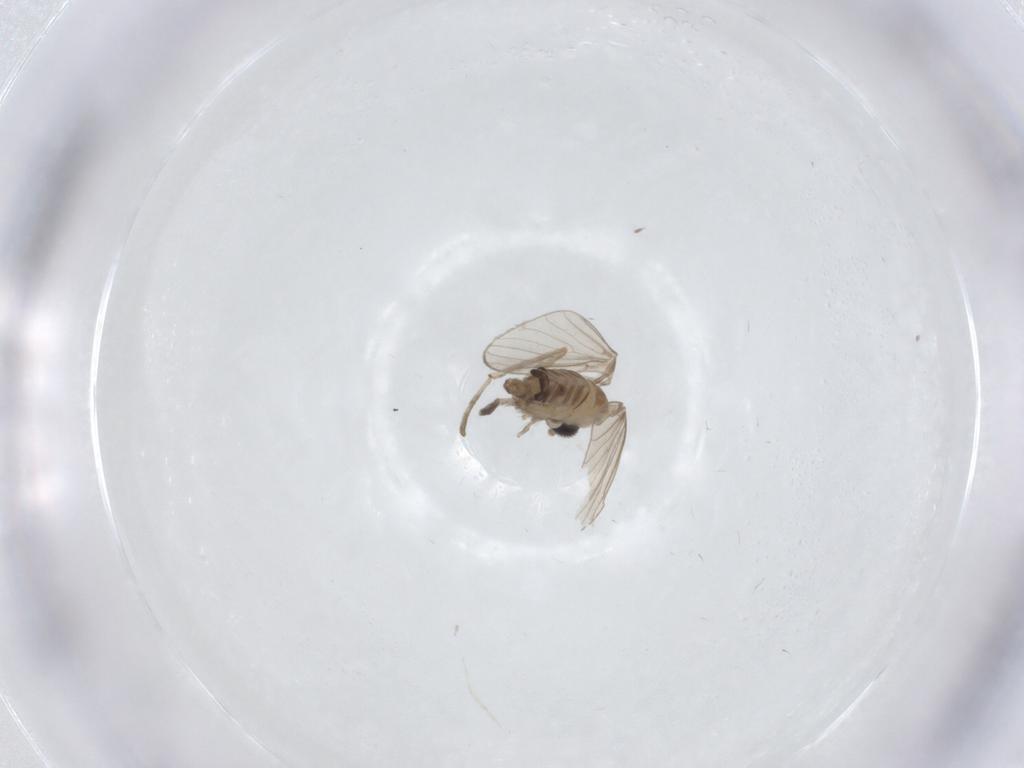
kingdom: Animalia
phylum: Arthropoda
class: Insecta
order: Diptera
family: Psychodidae
